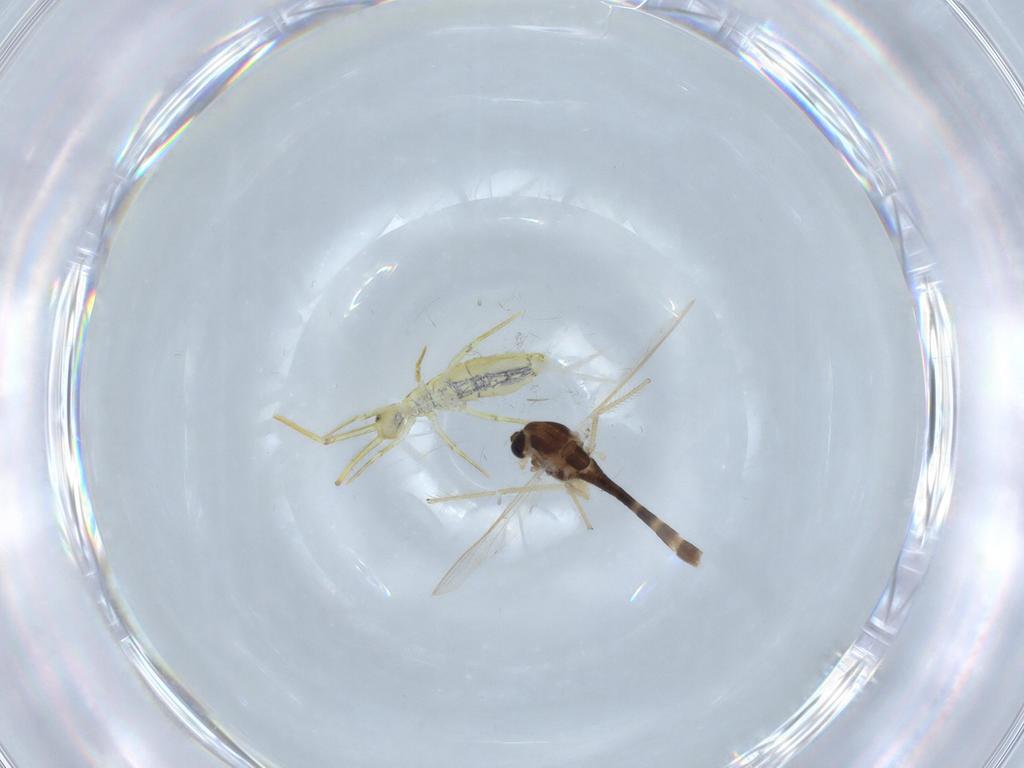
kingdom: Animalia
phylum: Arthropoda
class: Insecta
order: Diptera
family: Chironomidae
